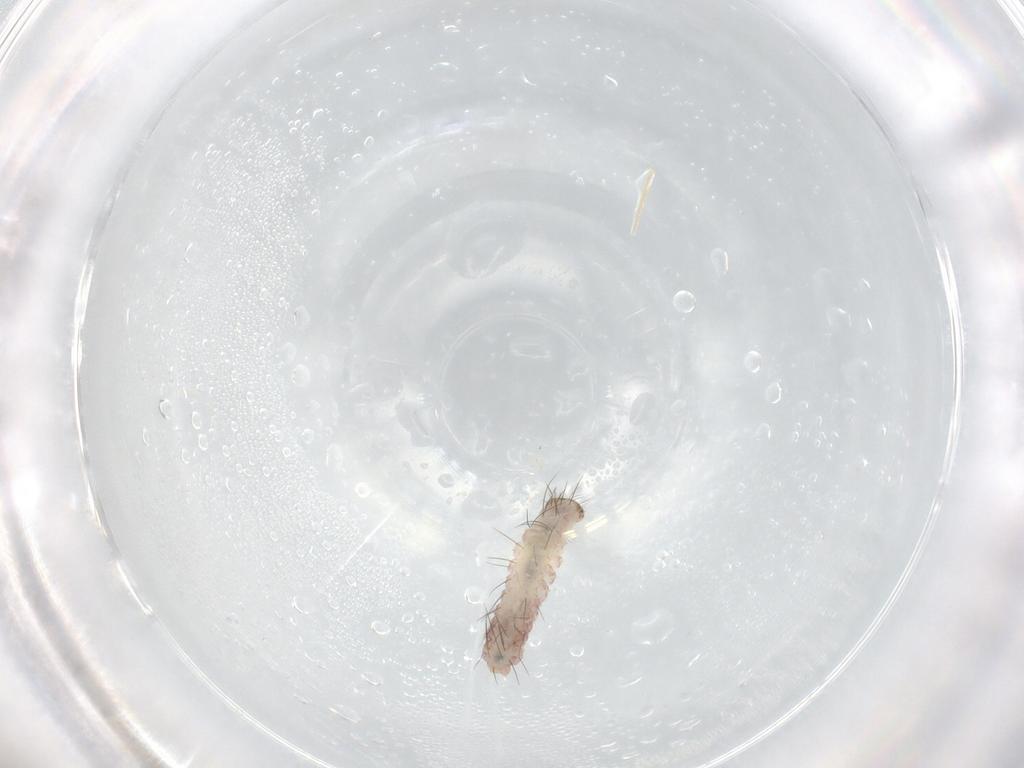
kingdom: Animalia
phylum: Arthropoda
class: Insecta
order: Lepidoptera
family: Erebidae
